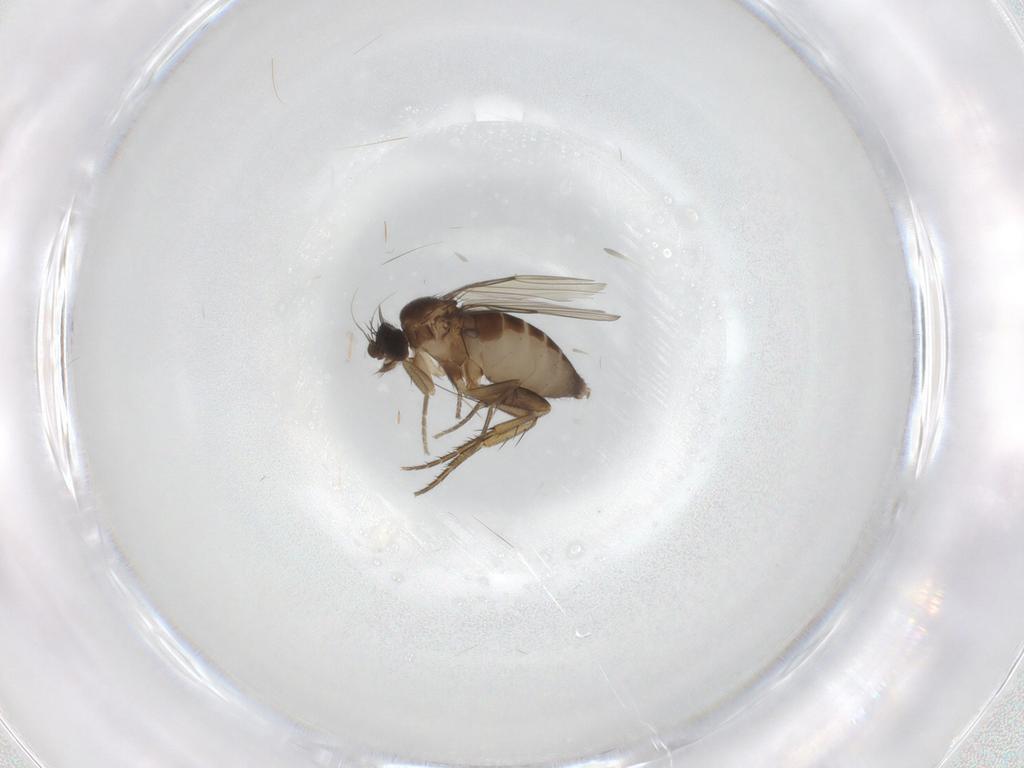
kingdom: Animalia
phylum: Arthropoda
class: Insecta
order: Diptera
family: Phoridae
